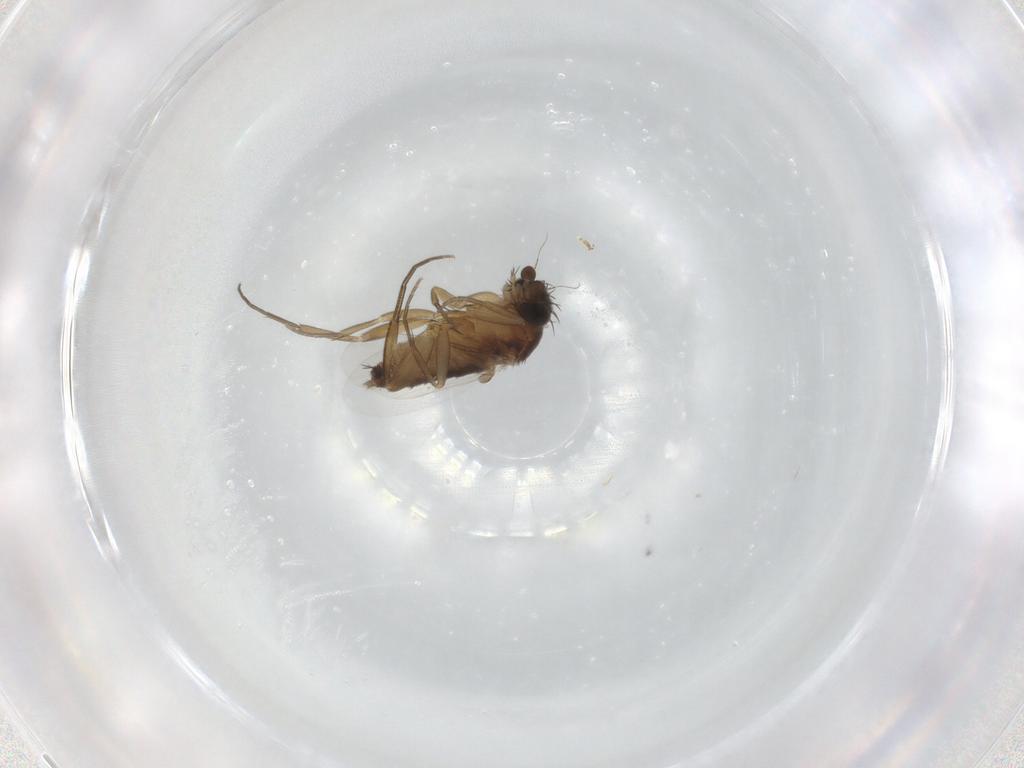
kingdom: Animalia
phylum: Arthropoda
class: Insecta
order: Diptera
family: Phoridae
